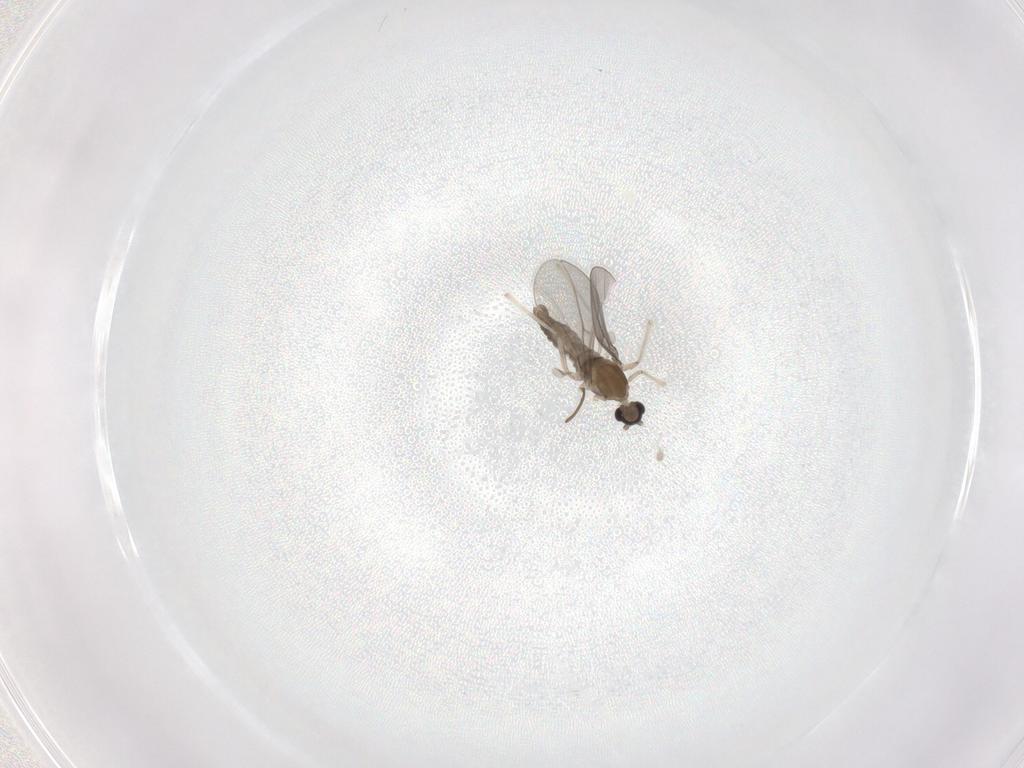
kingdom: Animalia
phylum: Arthropoda
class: Insecta
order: Diptera
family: Cecidomyiidae
